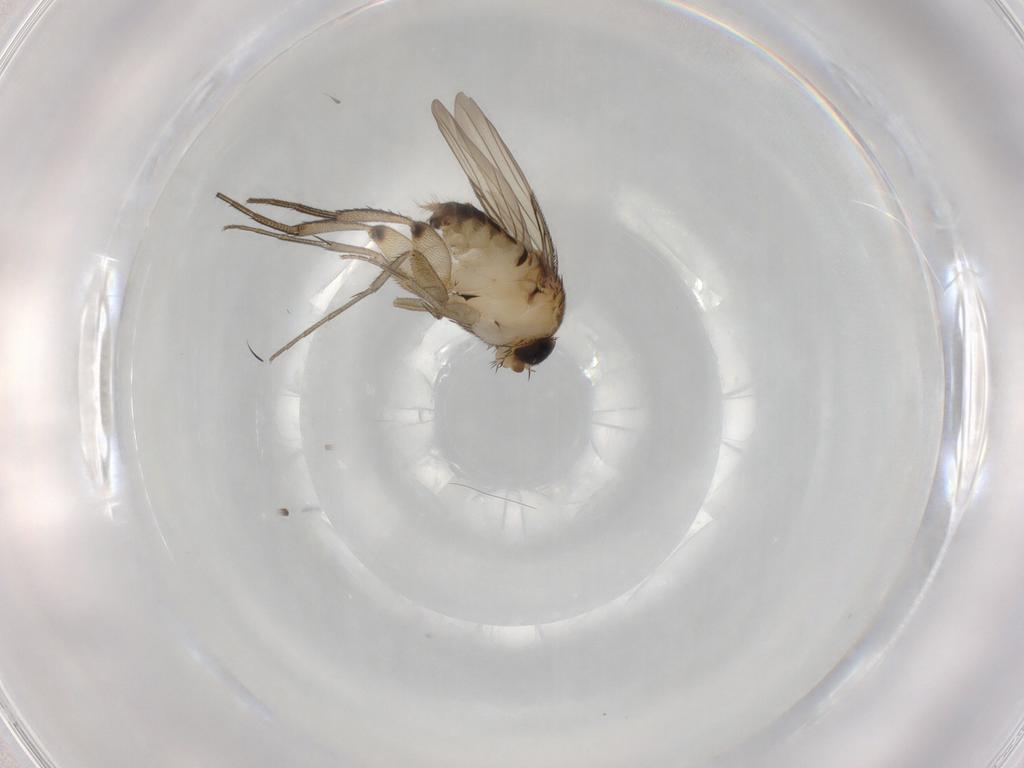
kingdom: Animalia
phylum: Arthropoda
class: Insecta
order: Diptera
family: Phoridae
